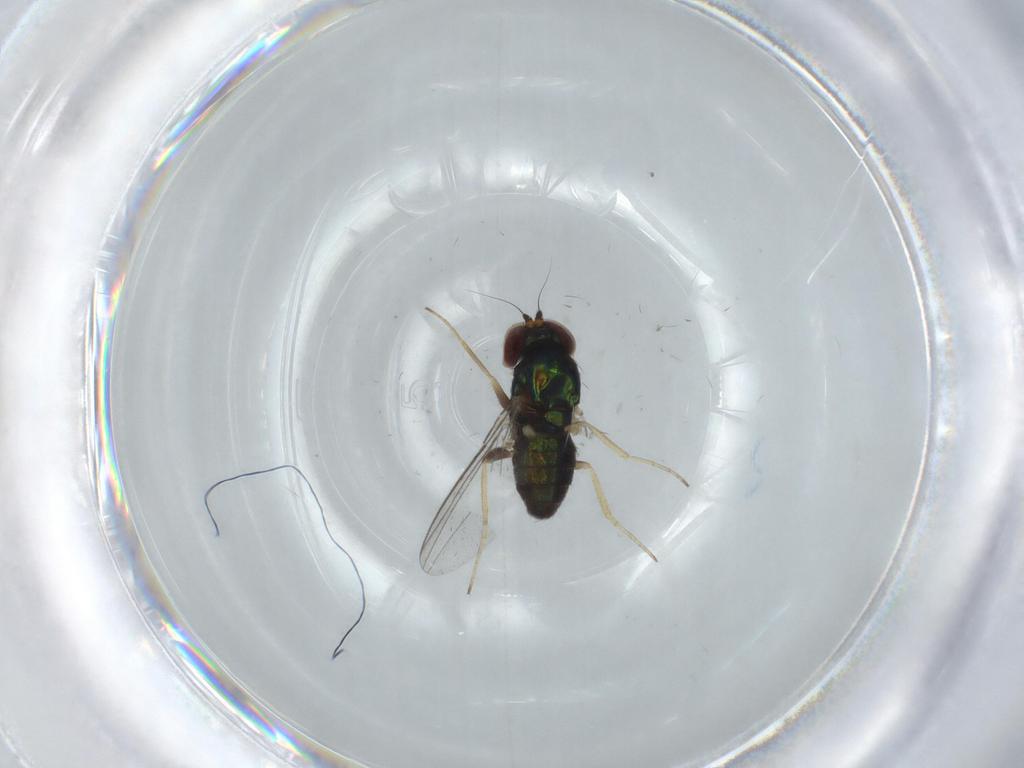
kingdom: Animalia
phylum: Arthropoda
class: Insecta
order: Diptera
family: Dolichopodidae
